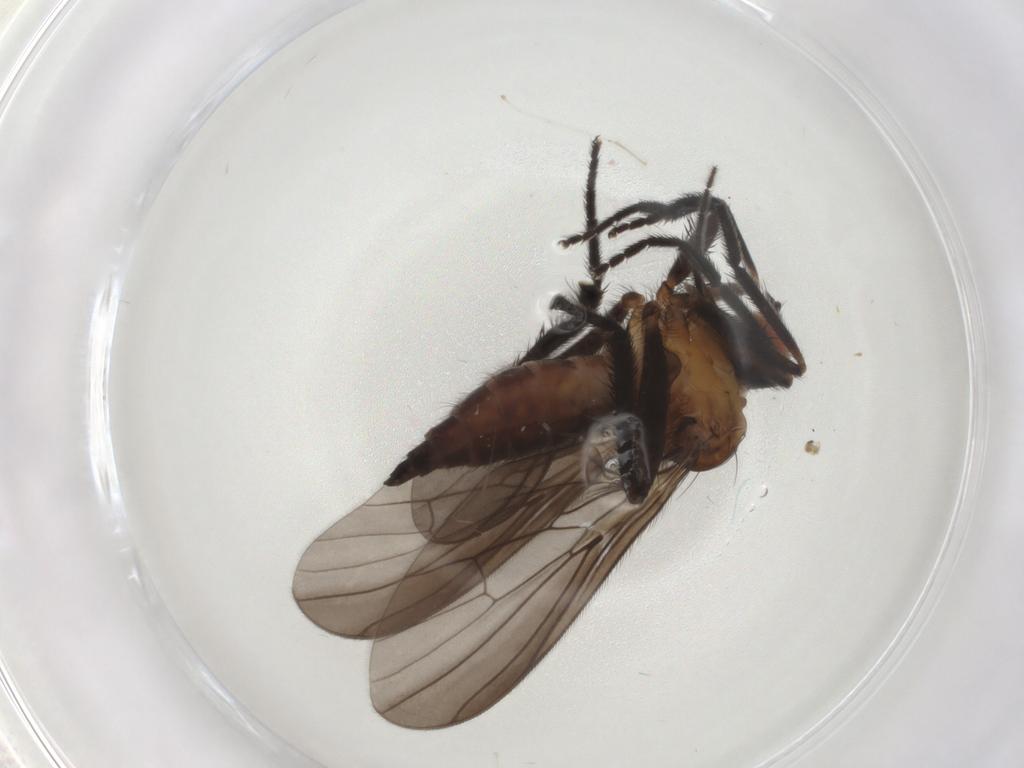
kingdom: Animalia
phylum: Arthropoda
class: Insecta
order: Diptera
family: Empididae
